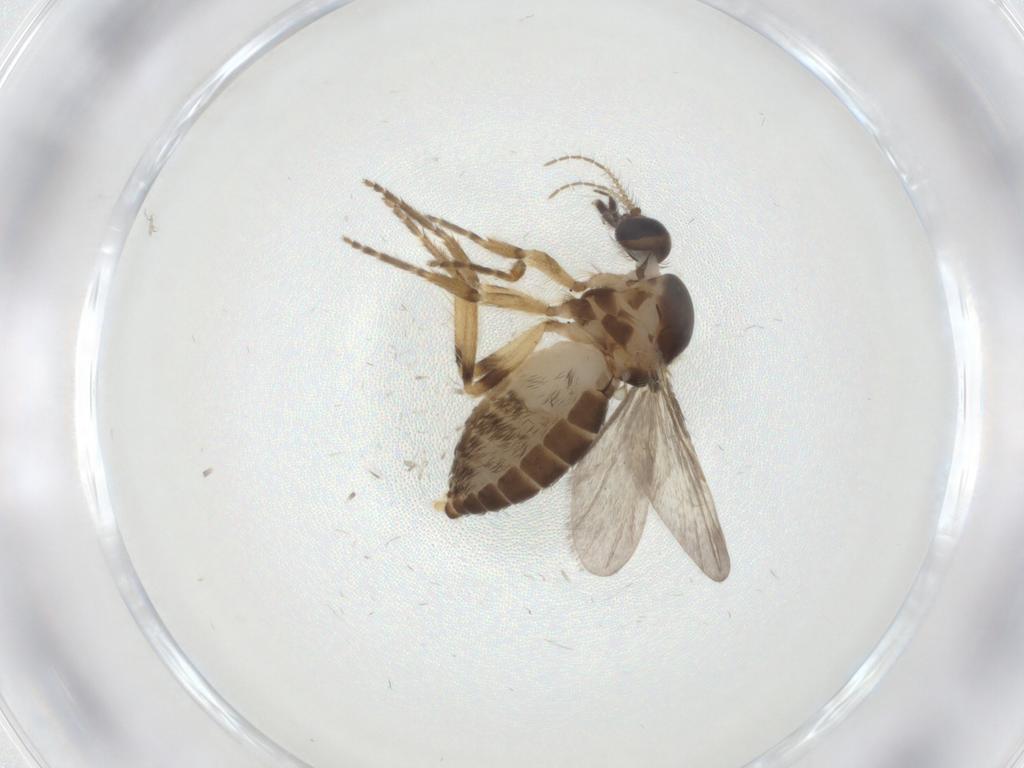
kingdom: Animalia
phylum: Arthropoda
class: Insecta
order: Diptera
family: Ceratopogonidae
